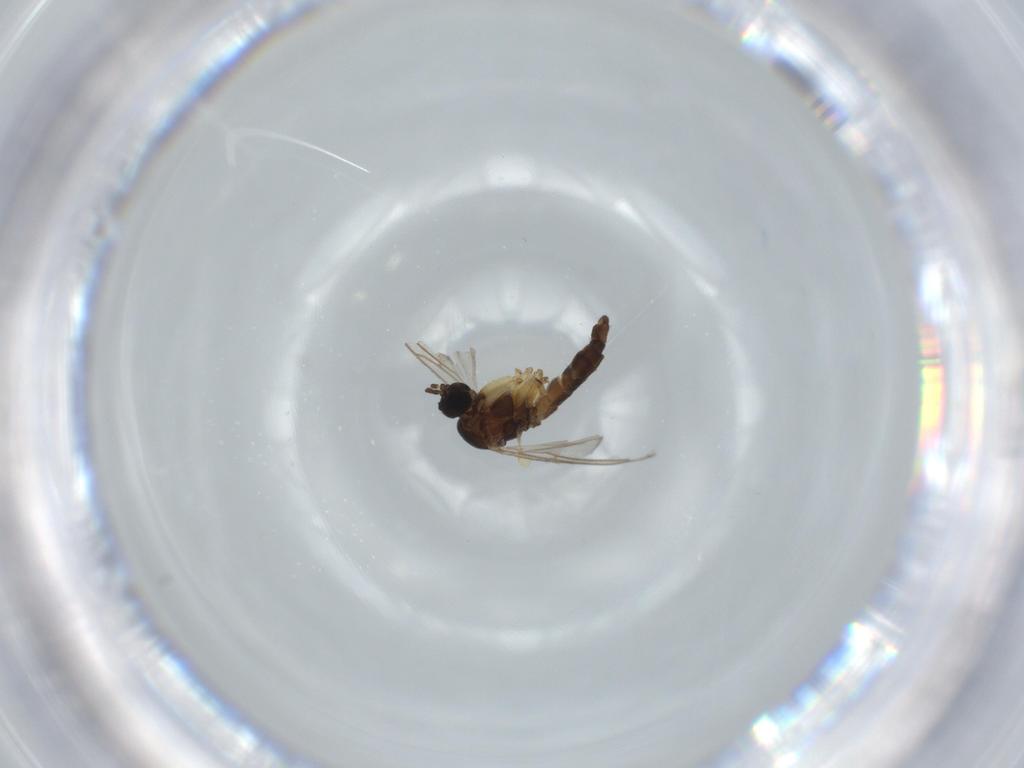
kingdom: Animalia
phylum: Arthropoda
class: Insecta
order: Diptera
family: Sciaridae
